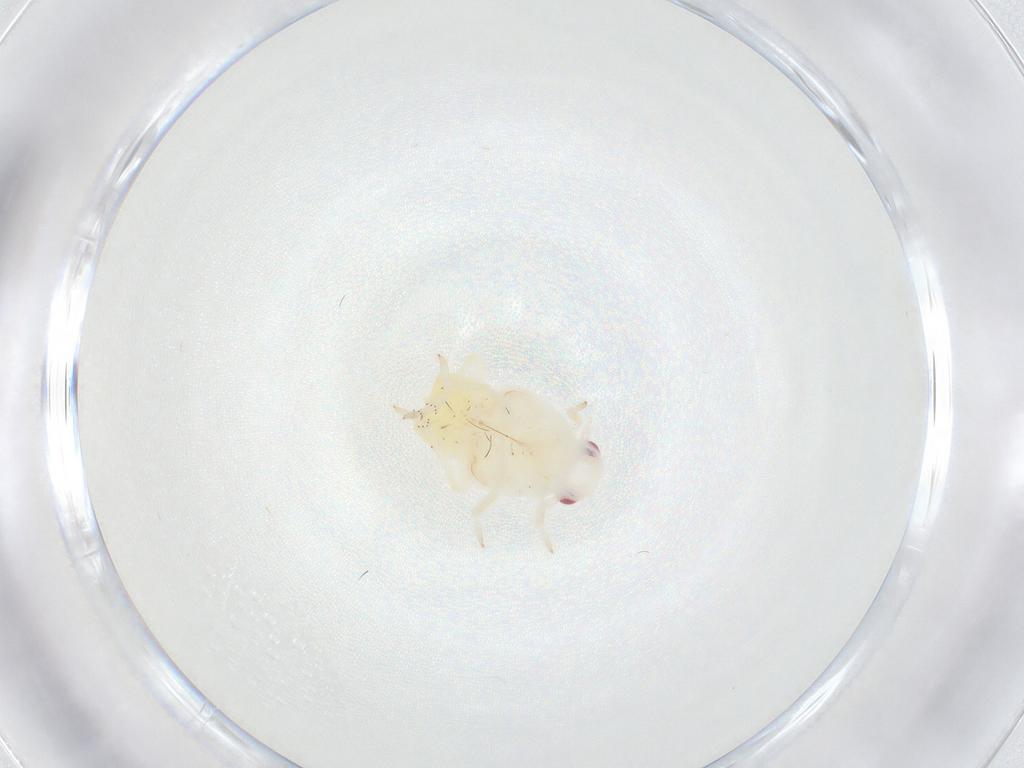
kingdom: Animalia
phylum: Arthropoda
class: Insecta
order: Hemiptera
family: Flatidae
